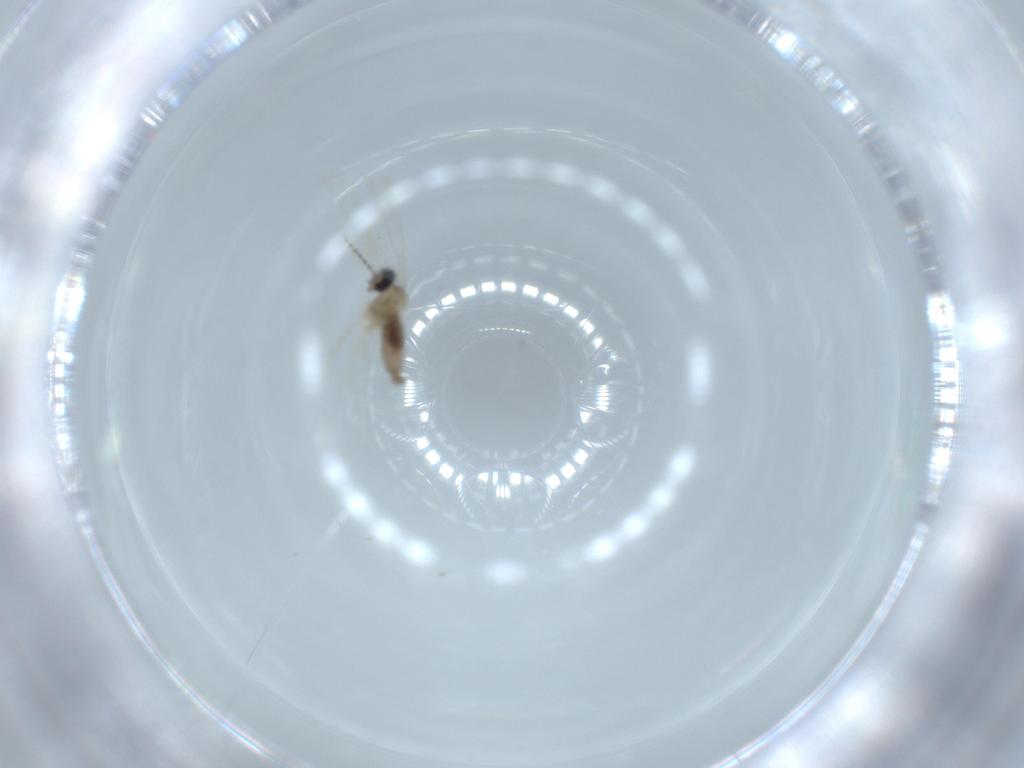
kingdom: Animalia
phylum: Arthropoda
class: Insecta
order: Diptera
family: Cecidomyiidae
